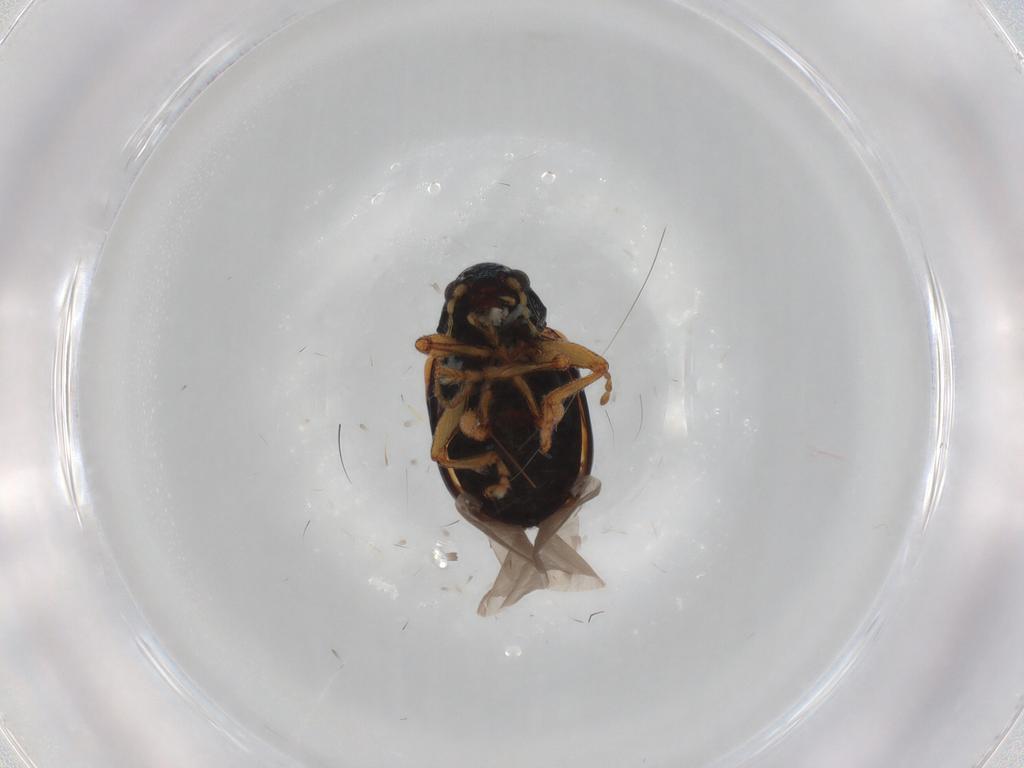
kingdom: Animalia
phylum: Arthropoda
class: Insecta
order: Coleoptera
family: Chrysomelidae
